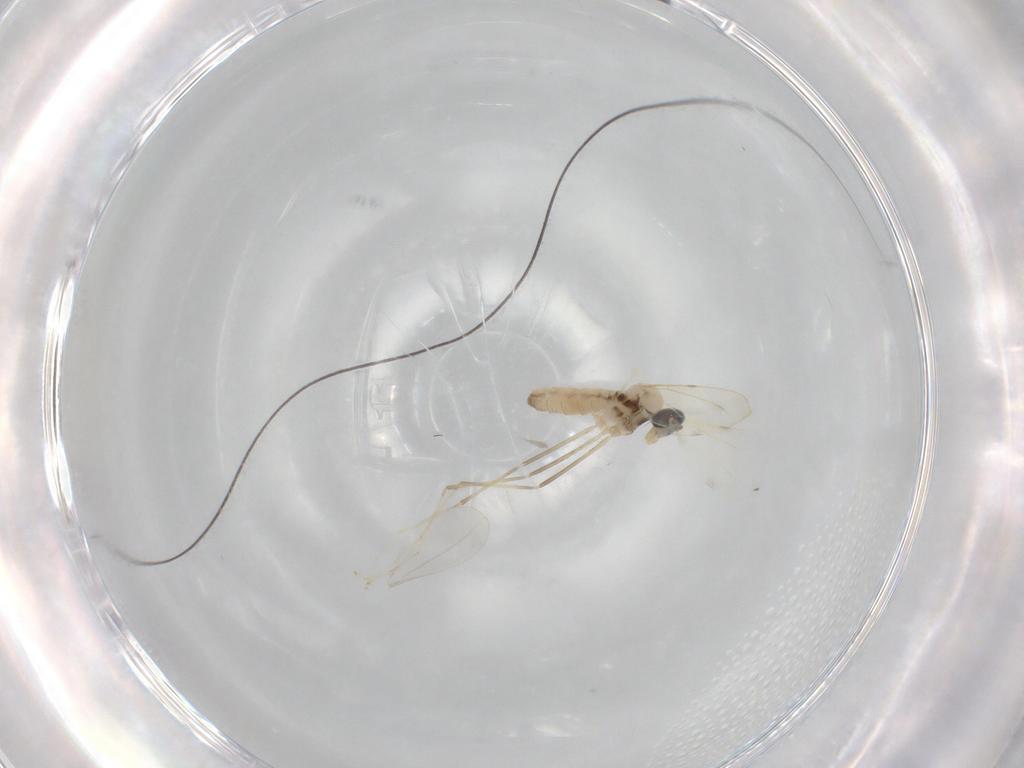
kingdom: Animalia
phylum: Arthropoda
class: Insecta
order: Diptera
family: Cecidomyiidae
